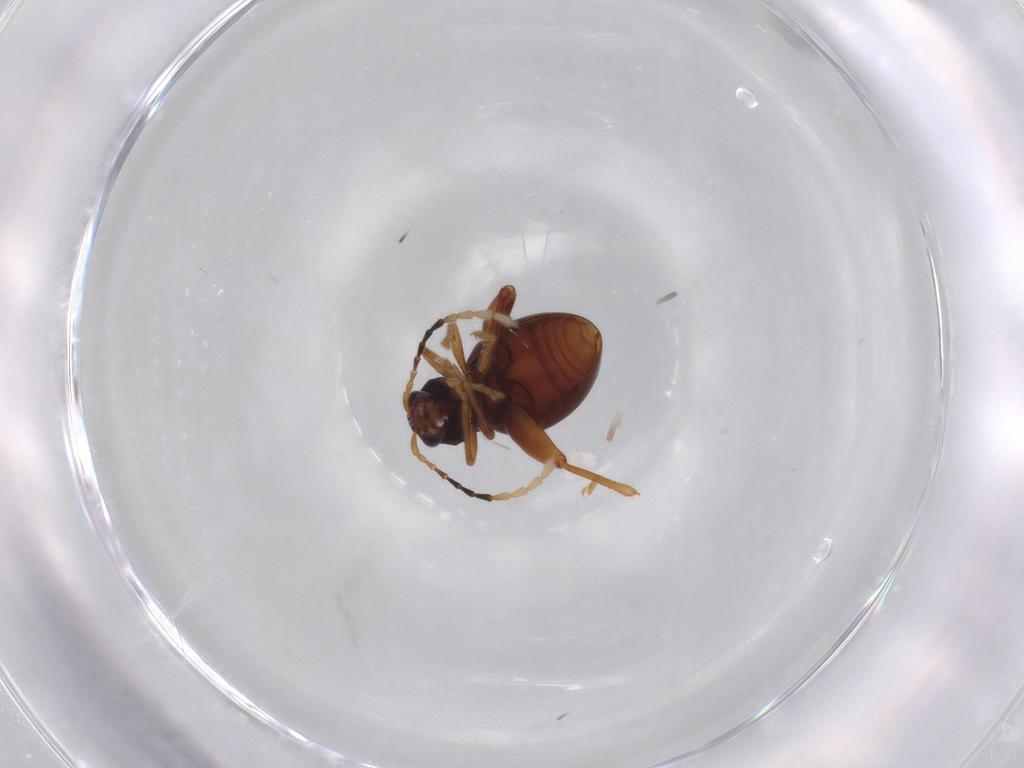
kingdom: Animalia
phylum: Arthropoda
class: Insecta
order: Coleoptera
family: Chrysomelidae
